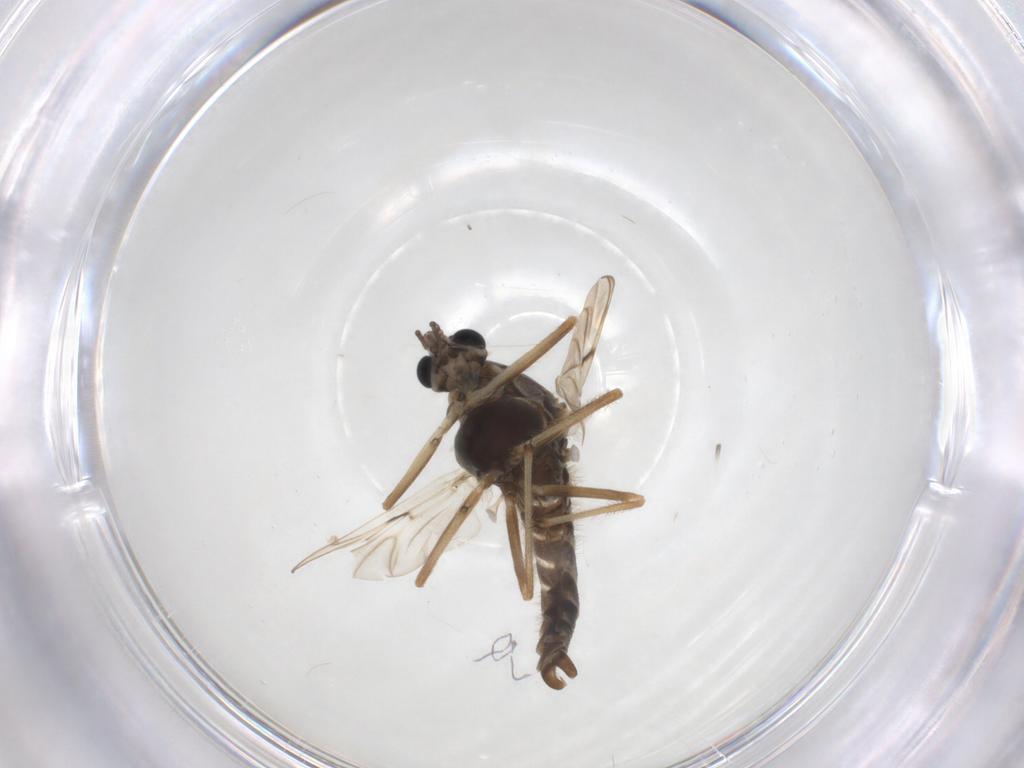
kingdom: Animalia
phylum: Arthropoda
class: Insecta
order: Diptera
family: Chironomidae
